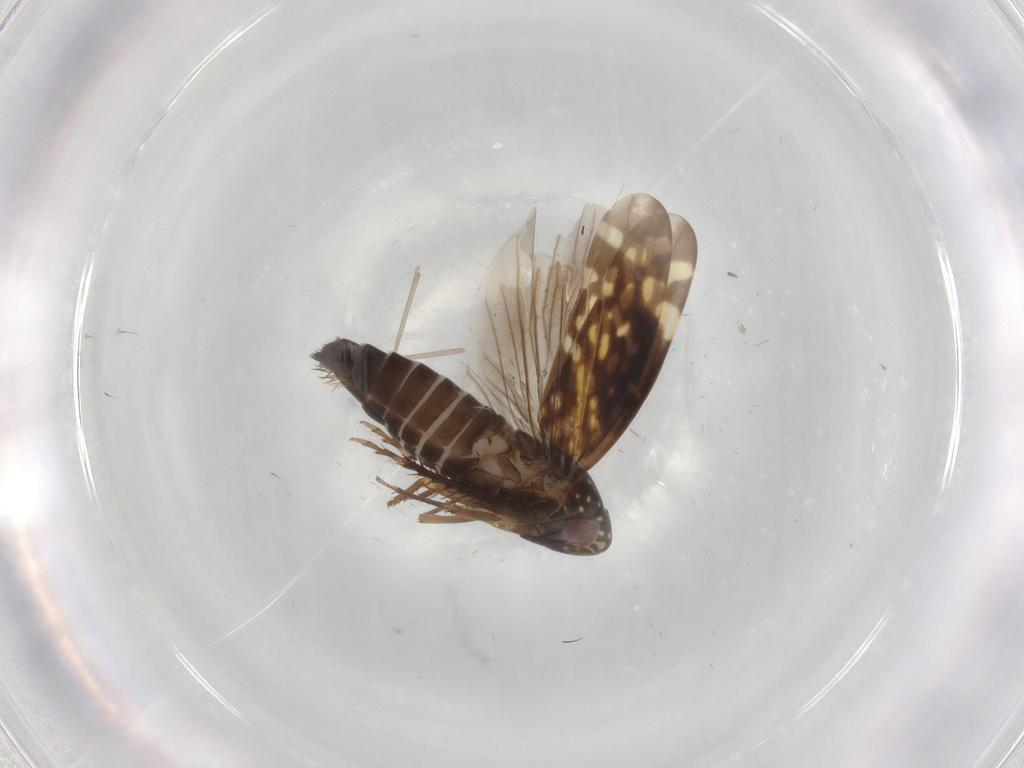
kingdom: Animalia
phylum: Arthropoda
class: Insecta
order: Hemiptera
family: Cicadellidae
